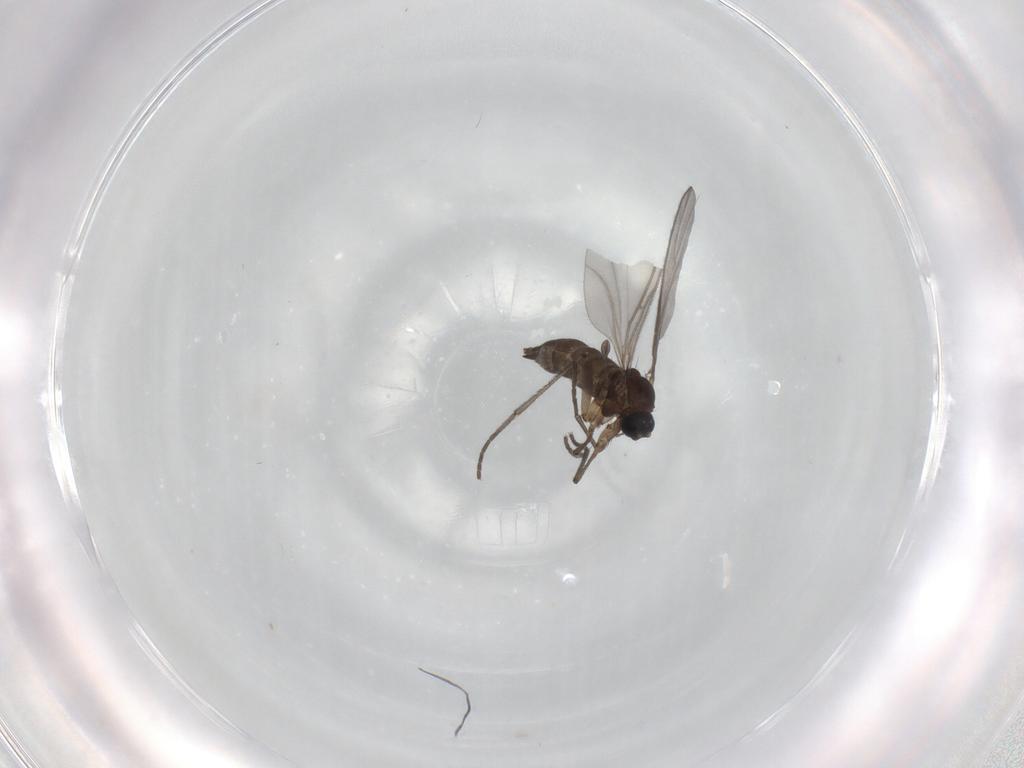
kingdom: Animalia
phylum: Arthropoda
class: Insecta
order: Diptera
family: Sciaridae
